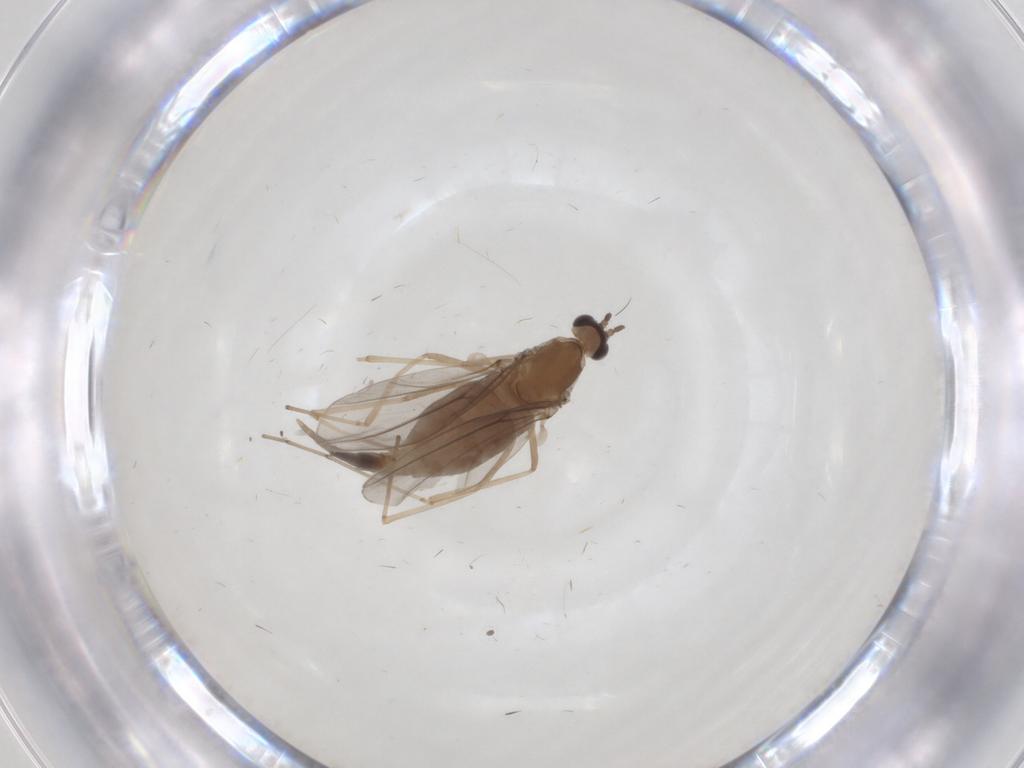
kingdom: Animalia
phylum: Arthropoda
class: Insecta
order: Diptera
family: Cecidomyiidae
